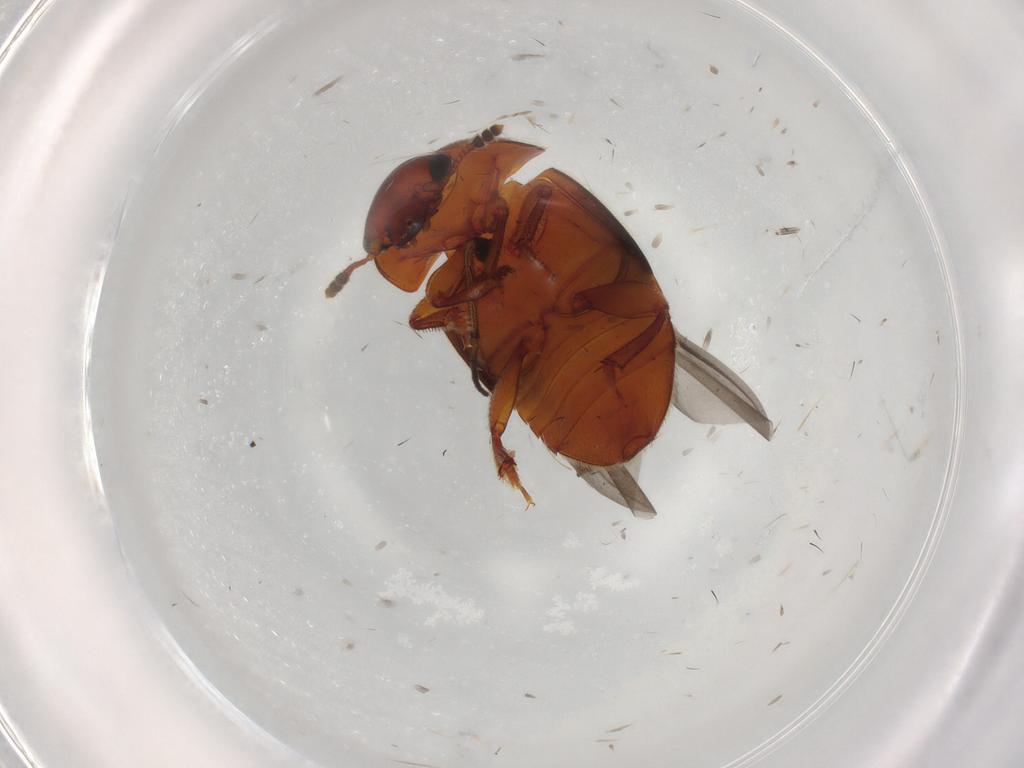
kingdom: Animalia
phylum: Arthropoda
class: Insecta
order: Coleoptera
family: Nitidulidae
